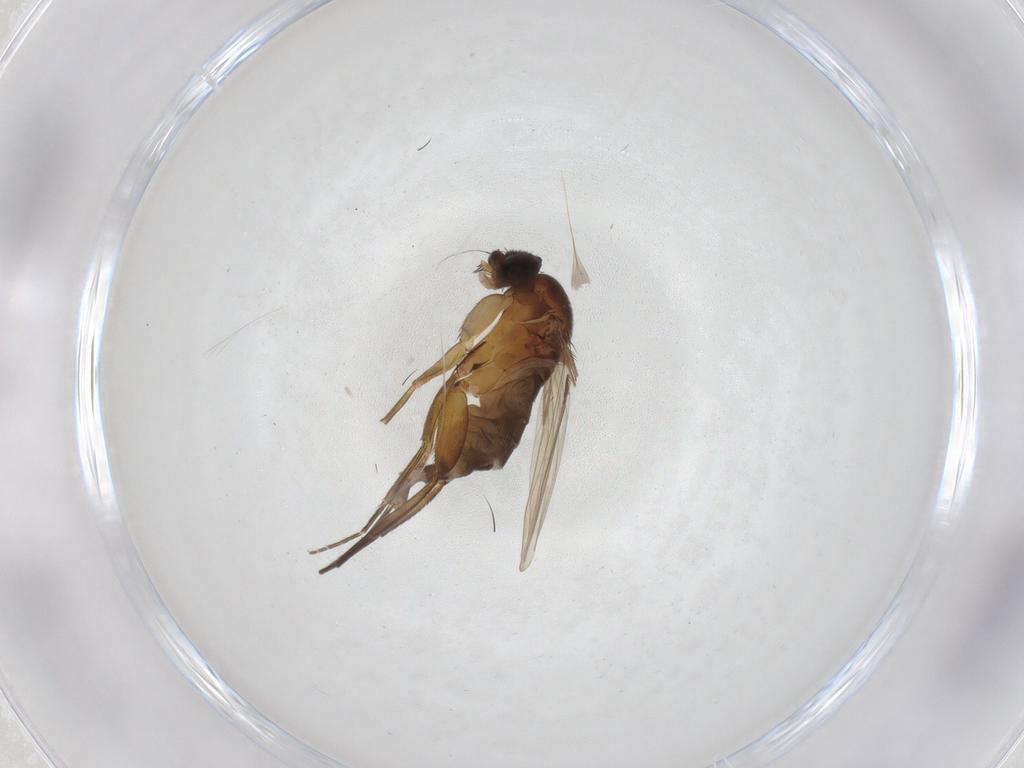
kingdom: Animalia
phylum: Arthropoda
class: Insecta
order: Diptera
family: Phoridae
